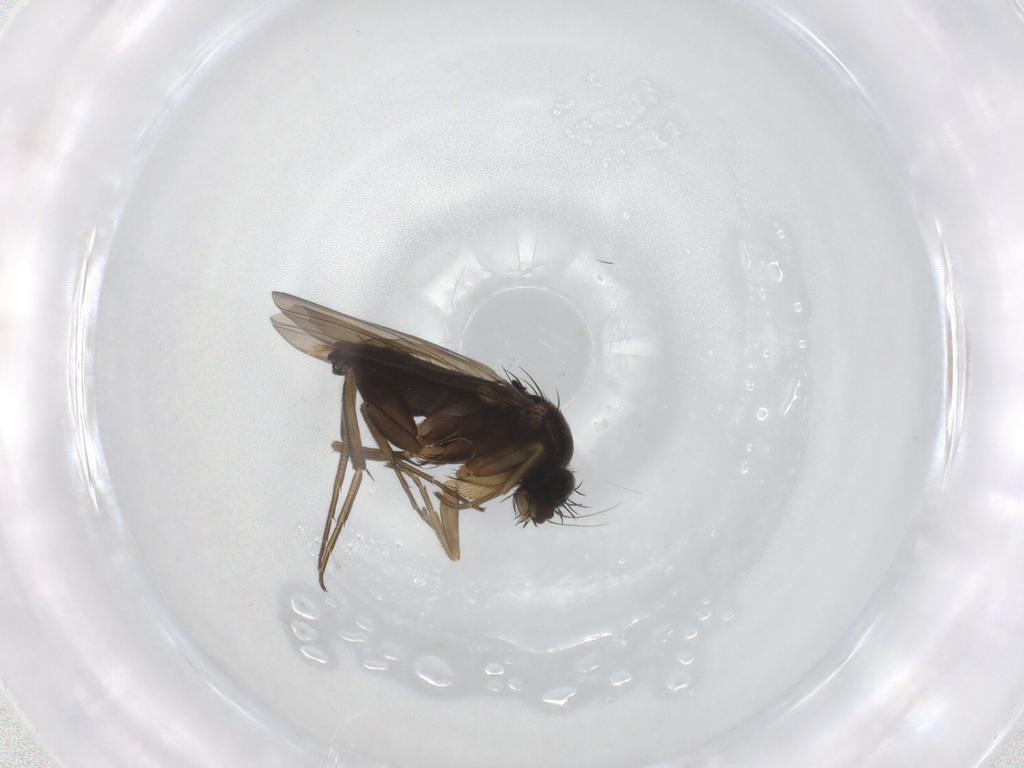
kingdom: Animalia
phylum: Arthropoda
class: Insecta
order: Diptera
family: Phoridae
